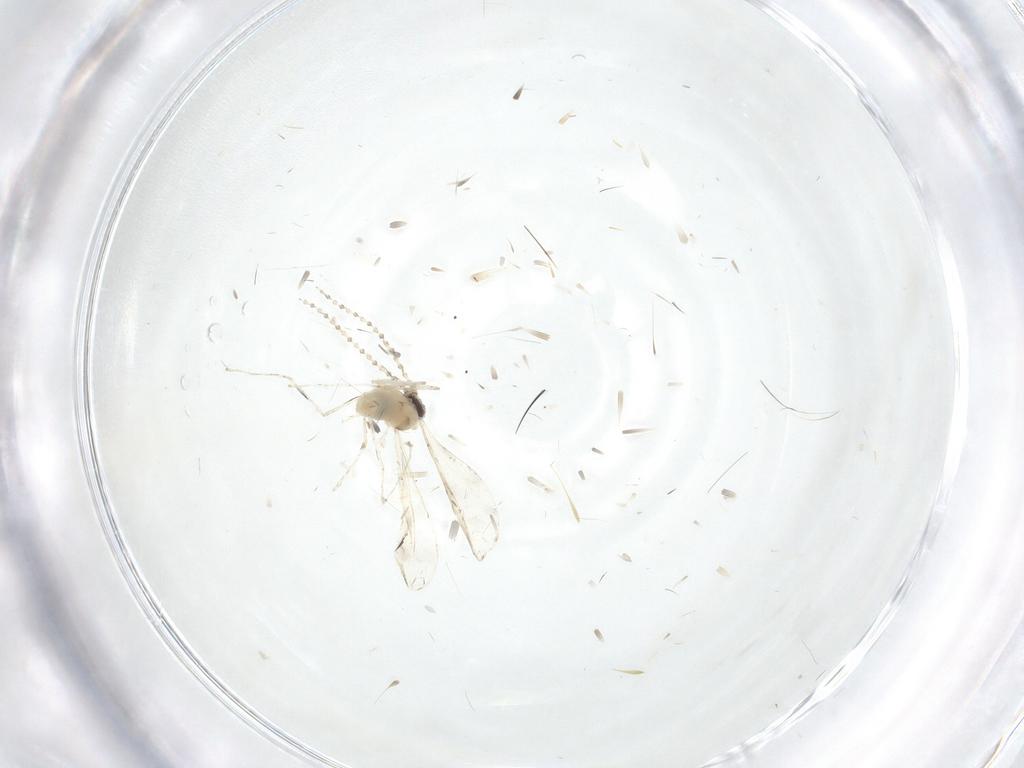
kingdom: Animalia
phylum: Arthropoda
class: Insecta
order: Diptera
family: Cecidomyiidae
